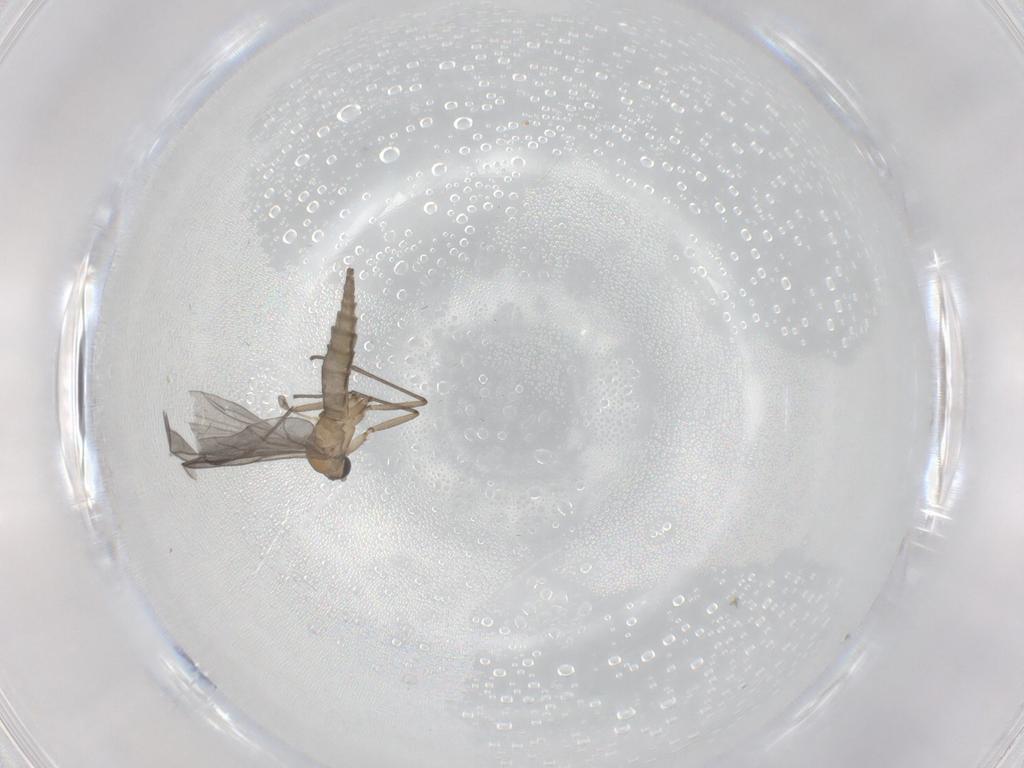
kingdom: Animalia
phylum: Arthropoda
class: Insecta
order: Diptera
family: Sciaridae
